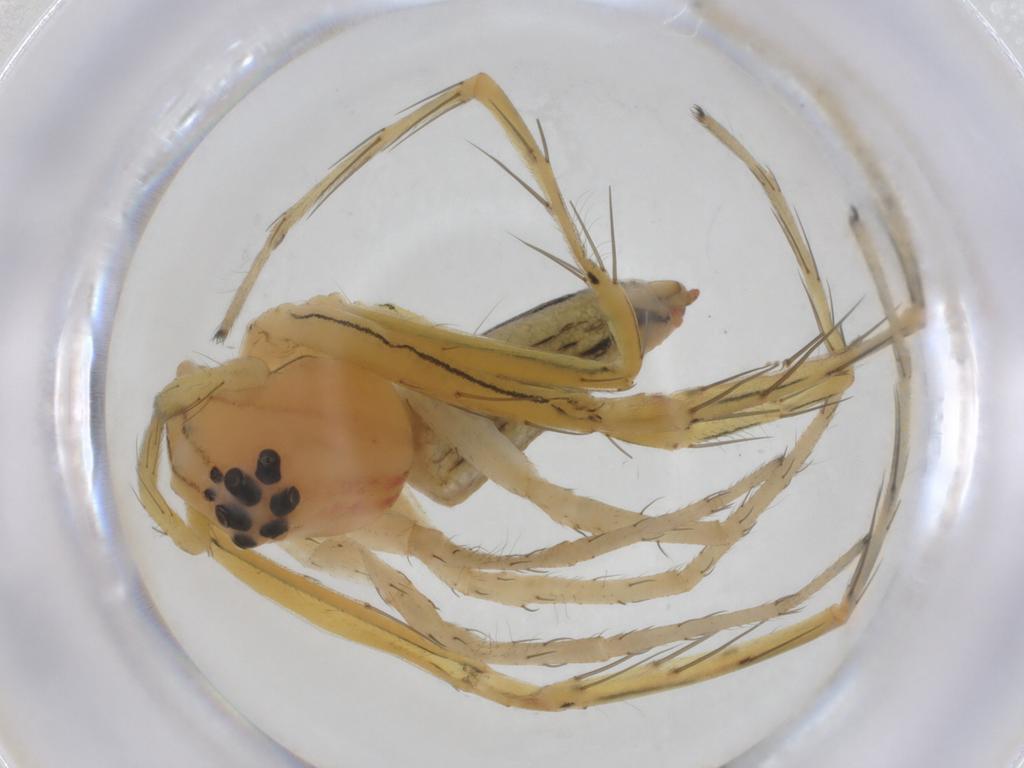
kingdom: Animalia
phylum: Arthropoda
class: Arachnida
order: Araneae
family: Oxyopidae
